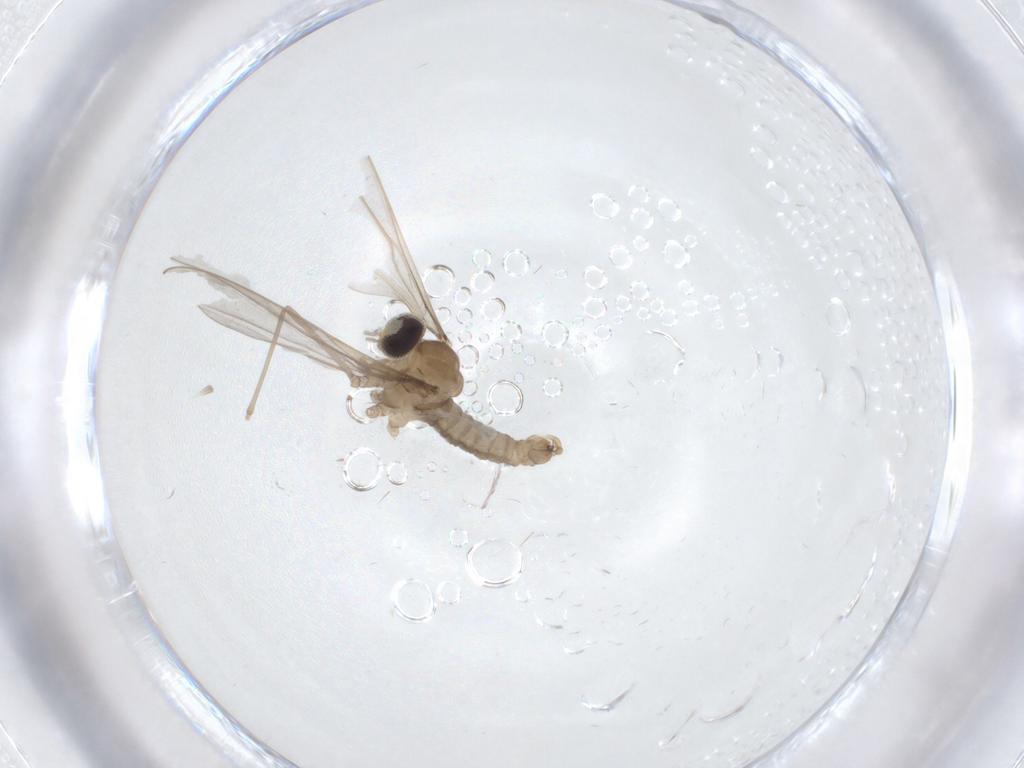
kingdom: Animalia
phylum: Arthropoda
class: Insecta
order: Diptera
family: Cecidomyiidae
